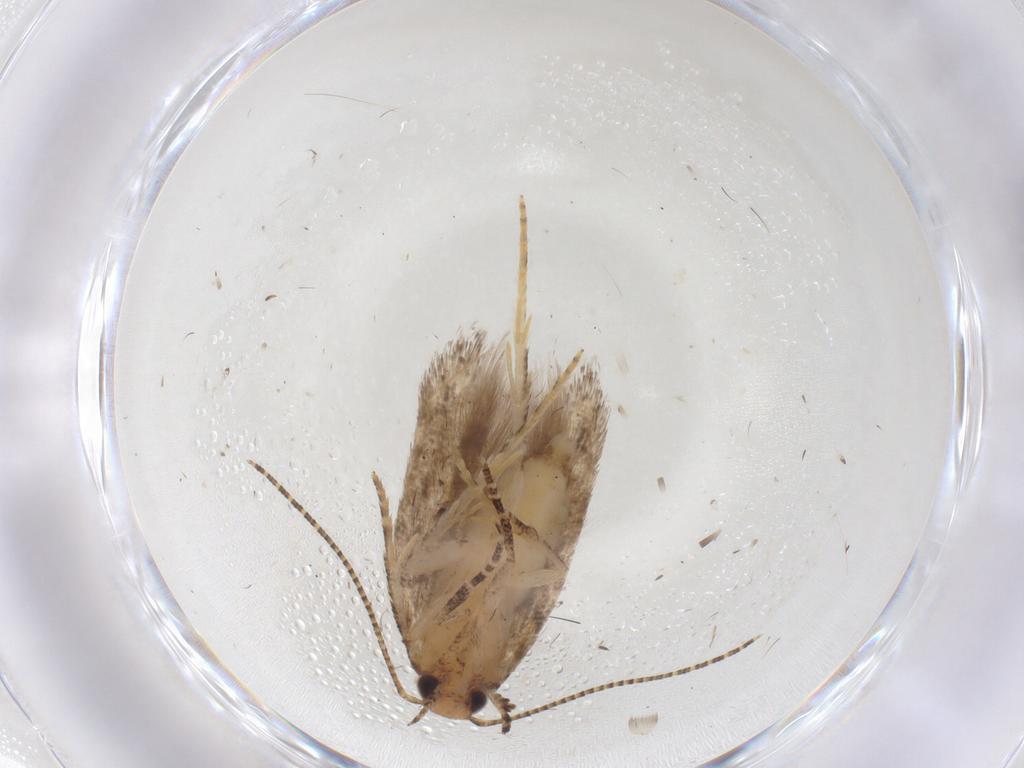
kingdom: Animalia
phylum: Arthropoda
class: Insecta
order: Lepidoptera
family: Gelechiidae
